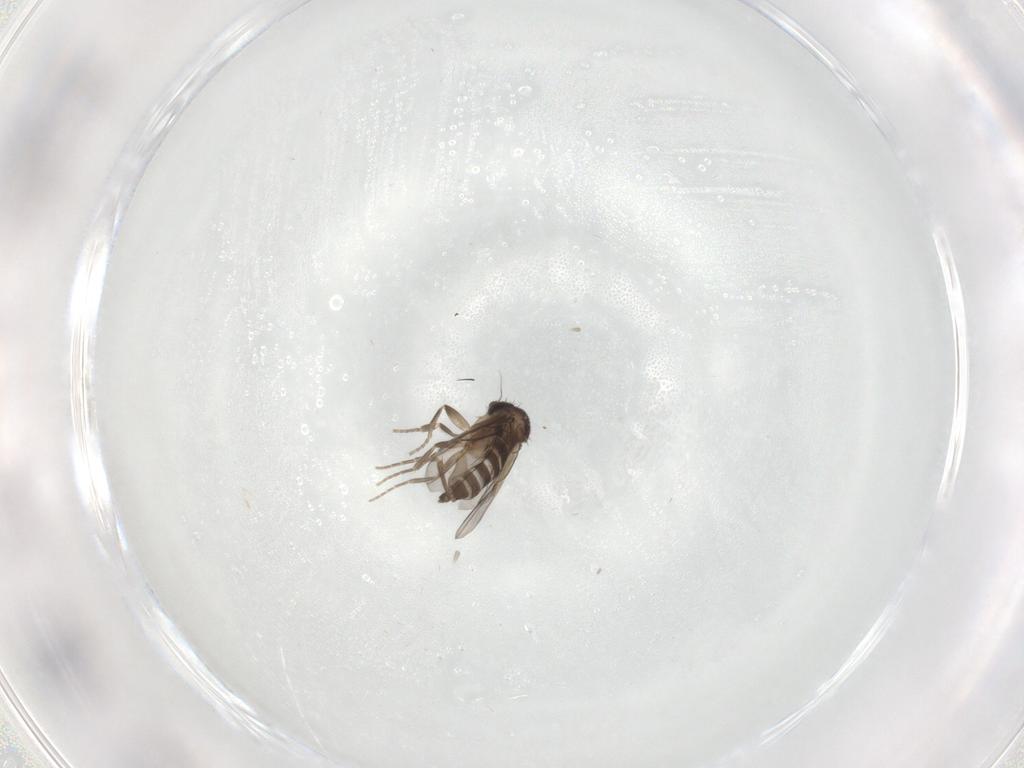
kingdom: Animalia
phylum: Arthropoda
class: Insecta
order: Diptera
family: Phoridae
